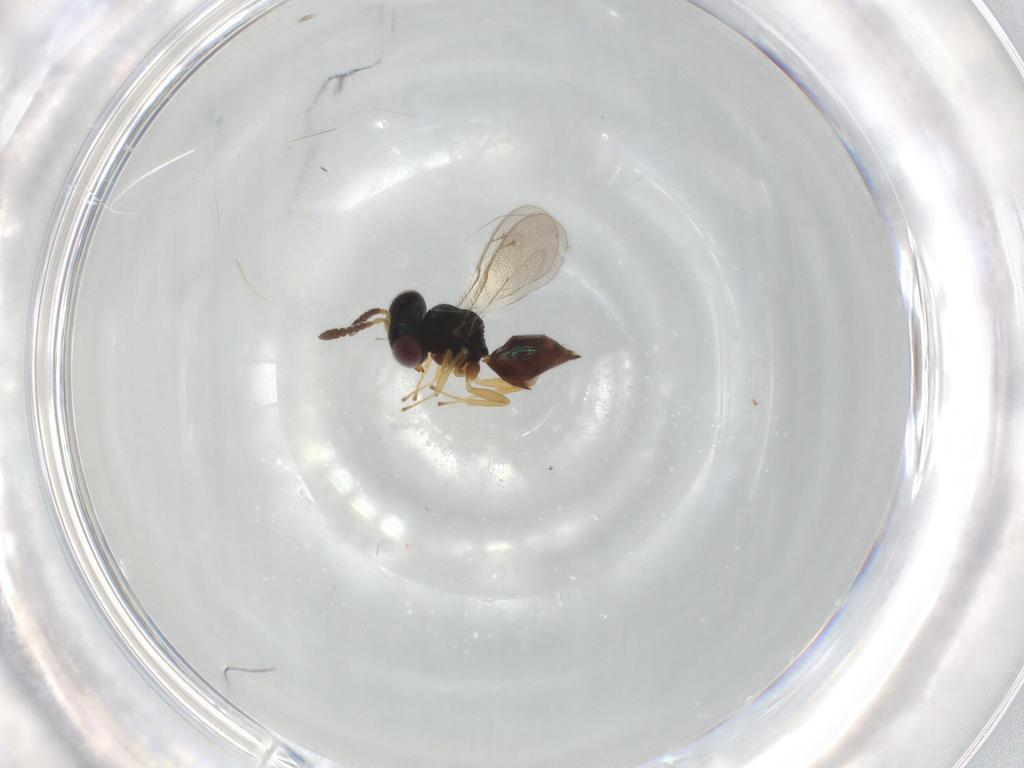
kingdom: Animalia
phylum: Arthropoda
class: Insecta
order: Hymenoptera
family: Pteromalidae
